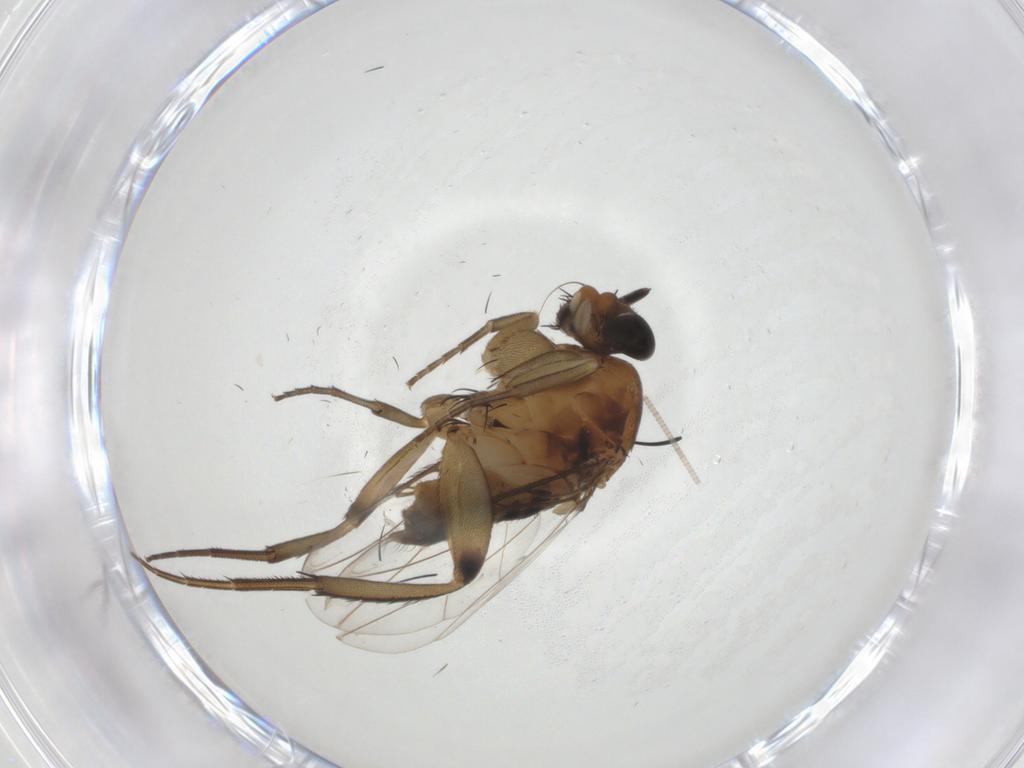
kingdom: Animalia
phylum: Arthropoda
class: Insecta
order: Diptera
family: Phoridae
